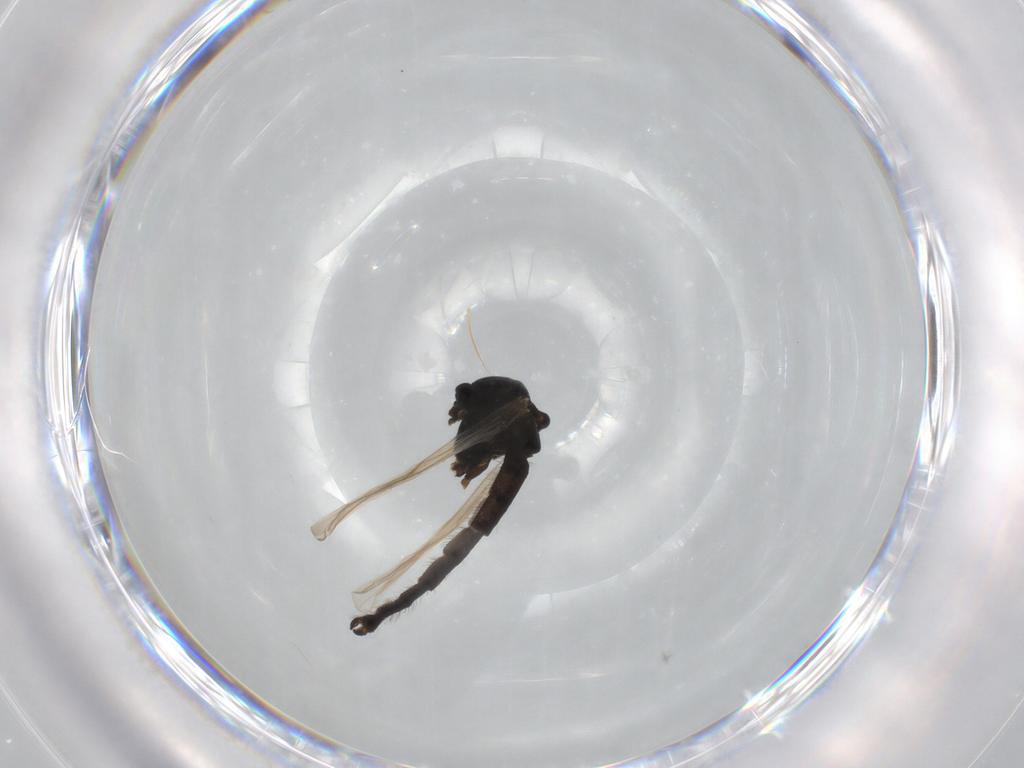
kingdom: Animalia
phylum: Arthropoda
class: Insecta
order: Diptera
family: Chironomidae
